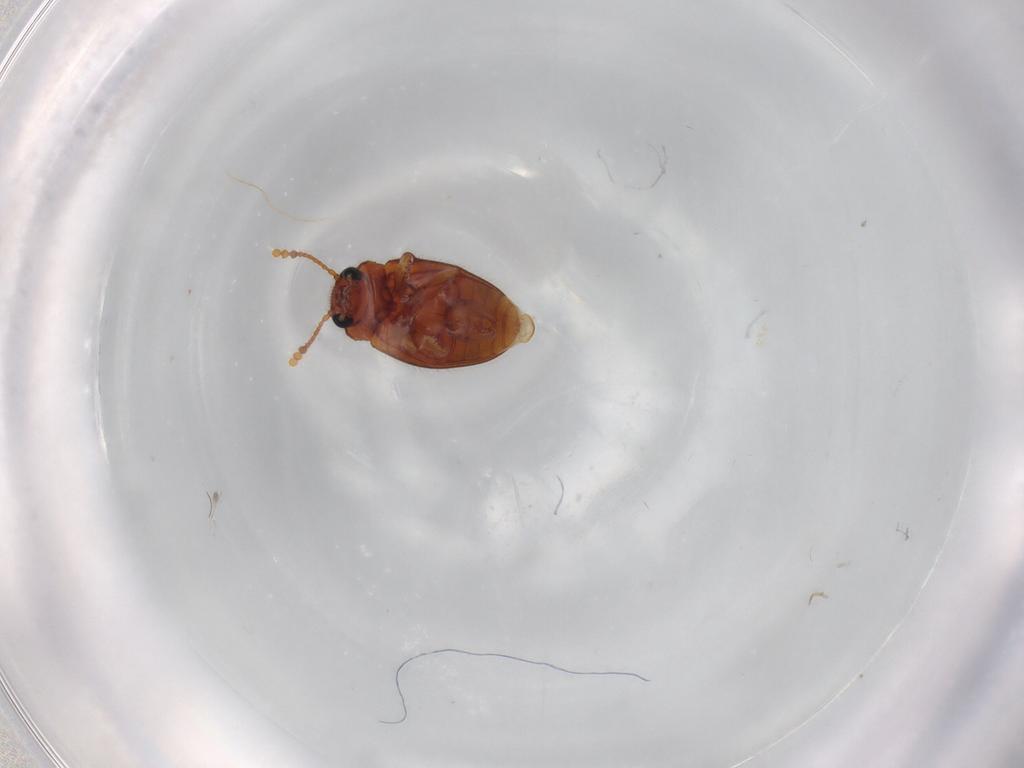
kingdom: Animalia
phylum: Arthropoda
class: Insecta
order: Coleoptera
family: Erotylidae
